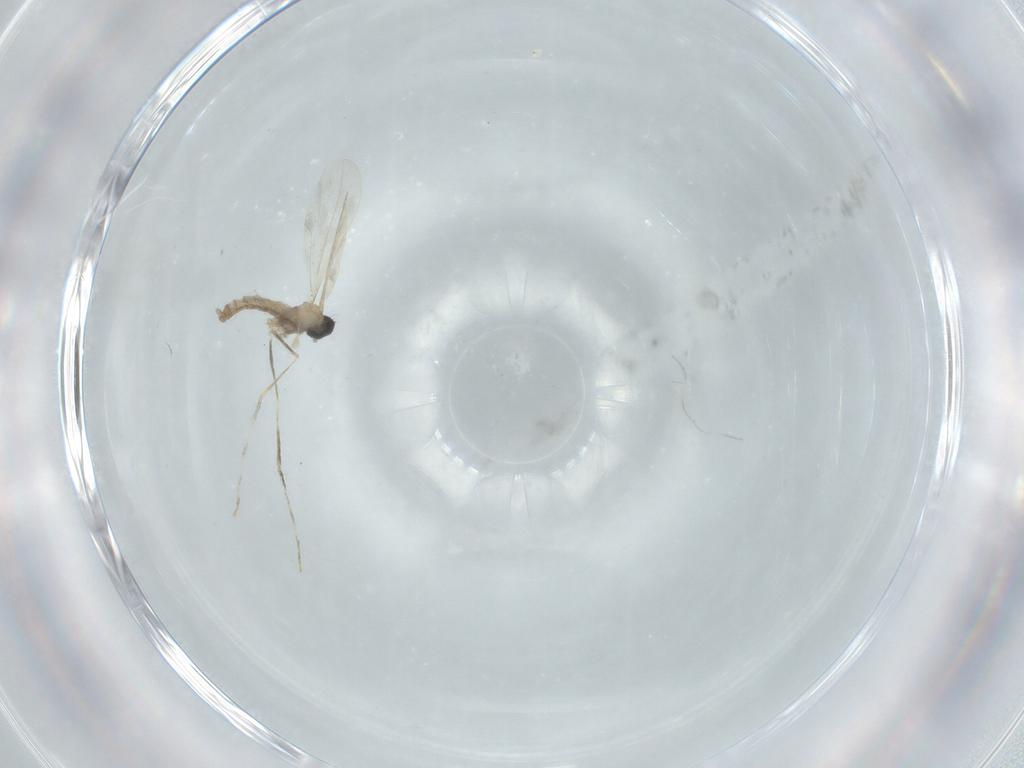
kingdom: Animalia
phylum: Arthropoda
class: Insecta
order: Diptera
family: Cecidomyiidae
